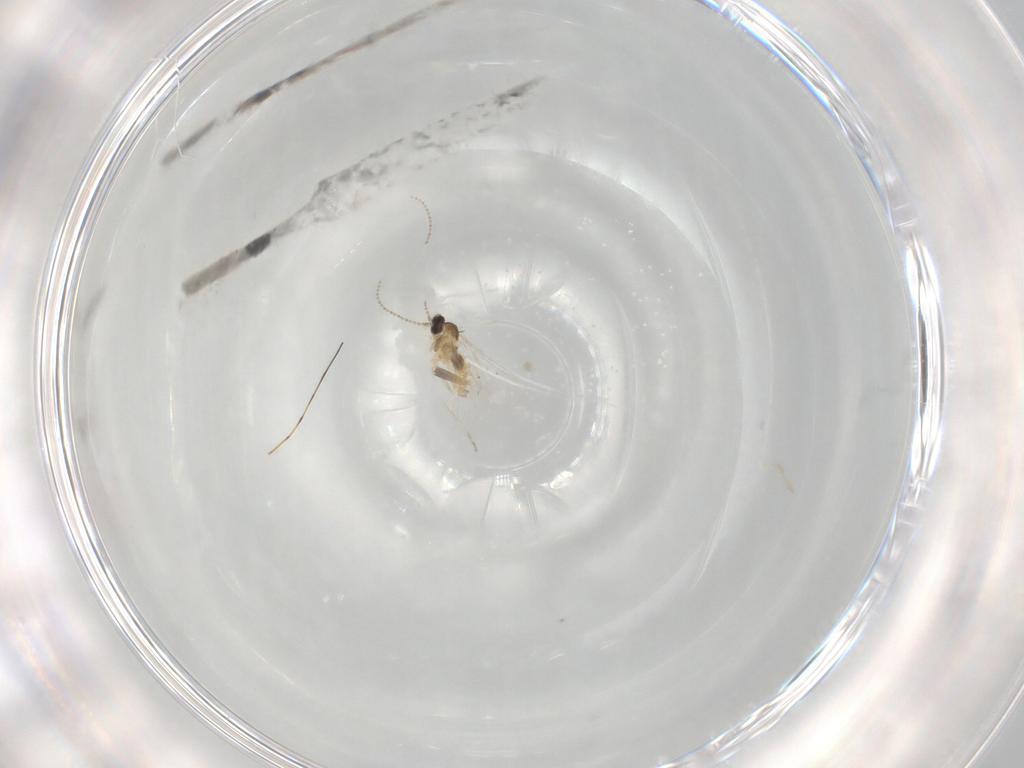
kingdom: Animalia
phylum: Arthropoda
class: Insecta
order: Diptera
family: Cecidomyiidae
